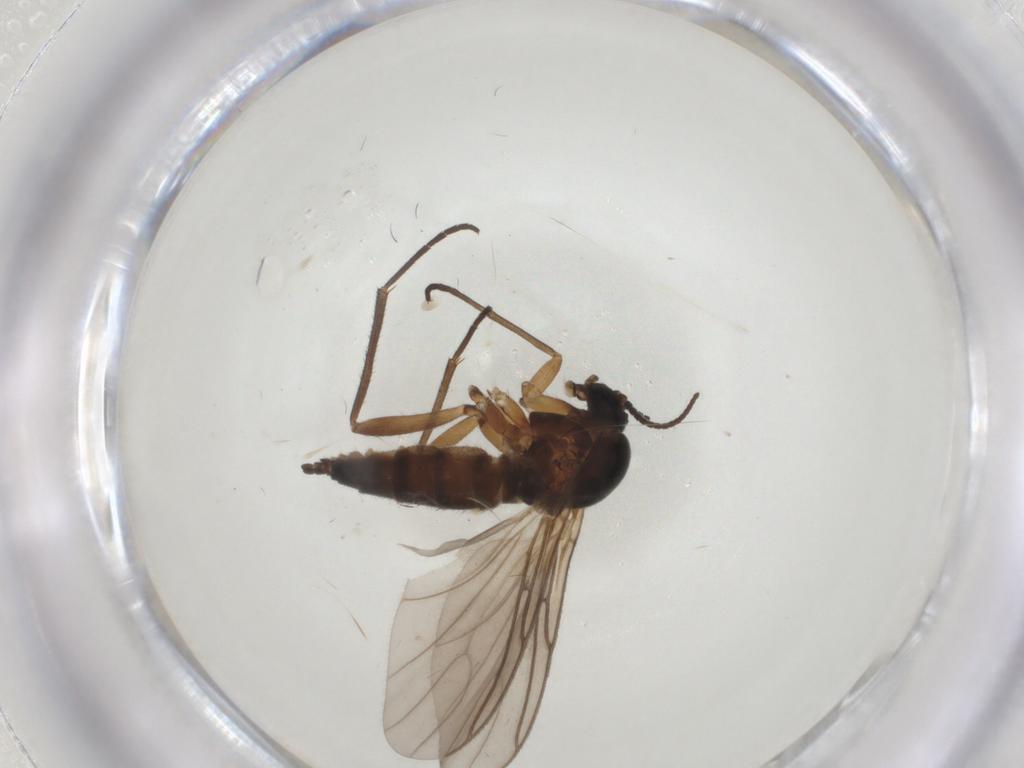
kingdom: Animalia
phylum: Arthropoda
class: Insecta
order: Diptera
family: Sciaridae
